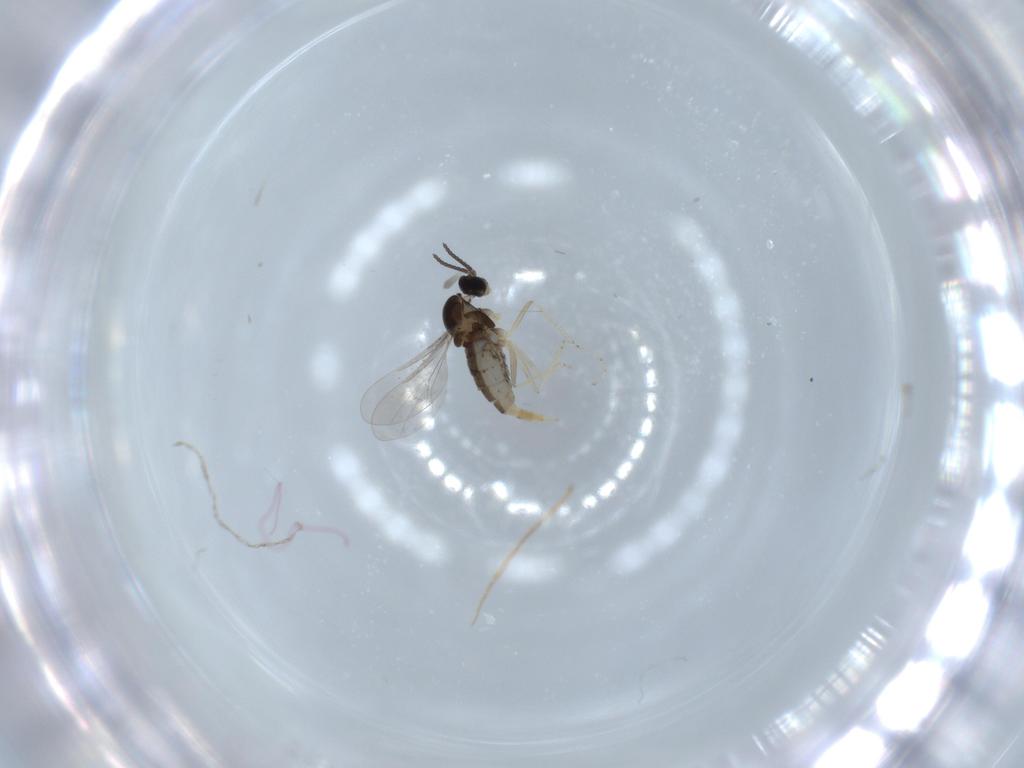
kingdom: Animalia
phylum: Arthropoda
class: Insecta
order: Diptera
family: Cecidomyiidae
